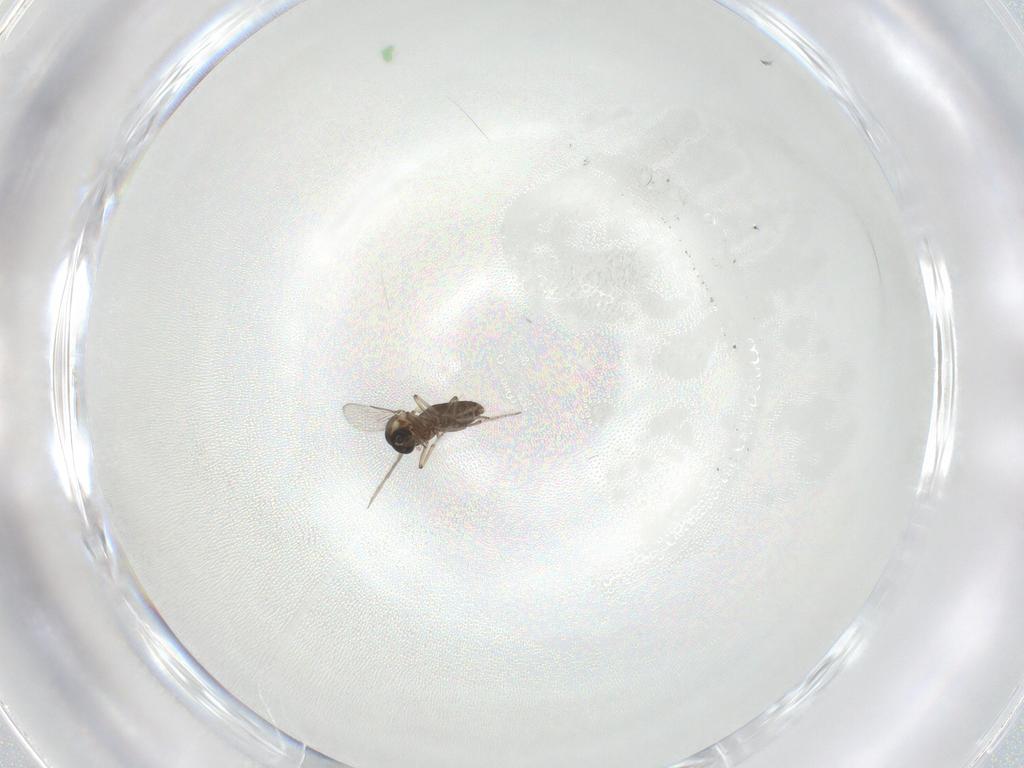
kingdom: Animalia
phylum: Arthropoda
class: Insecta
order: Diptera
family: Ceratopogonidae
